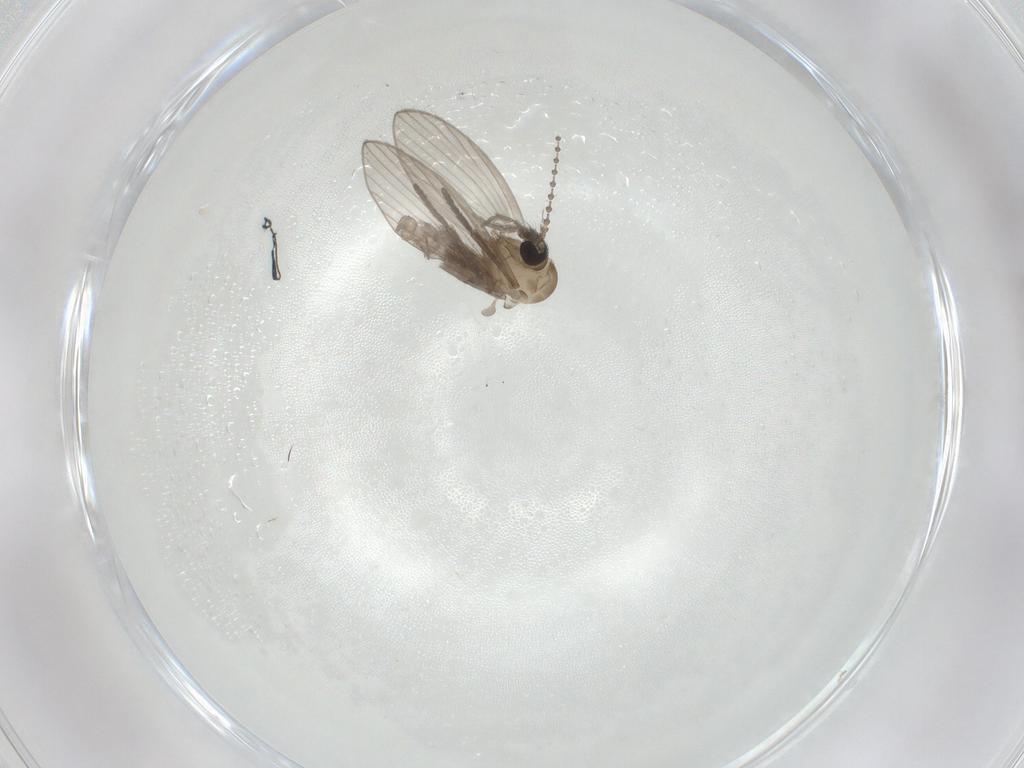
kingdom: Animalia
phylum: Arthropoda
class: Insecta
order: Diptera
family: Psychodidae
